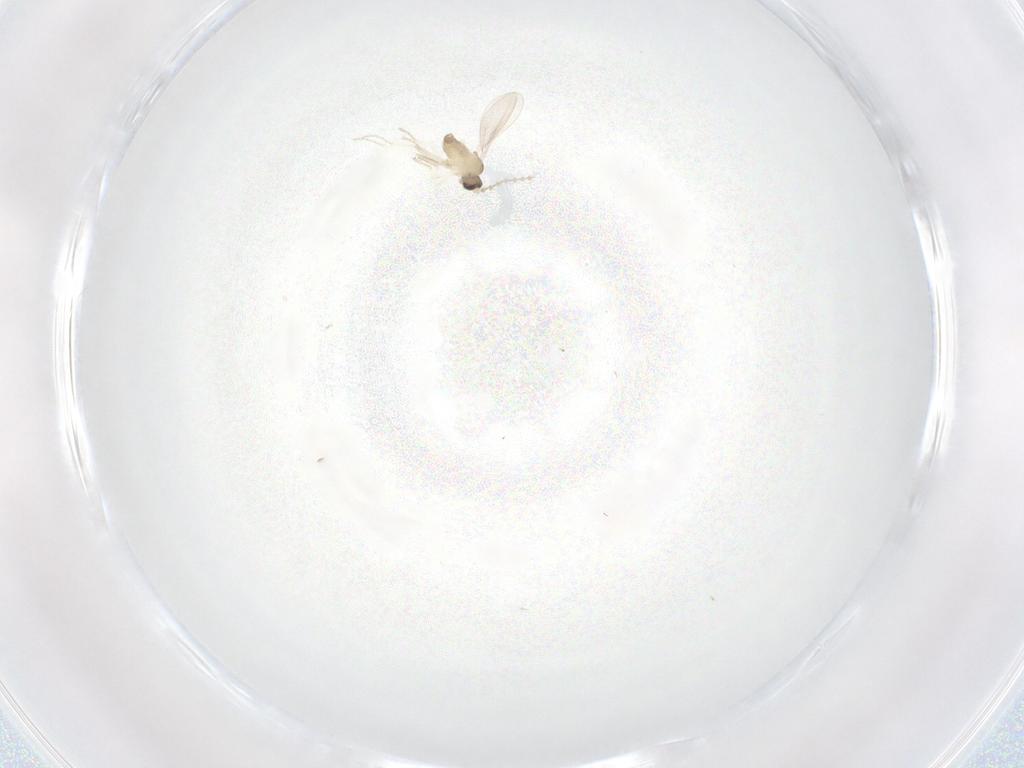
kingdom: Animalia
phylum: Arthropoda
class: Insecta
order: Diptera
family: Cecidomyiidae
